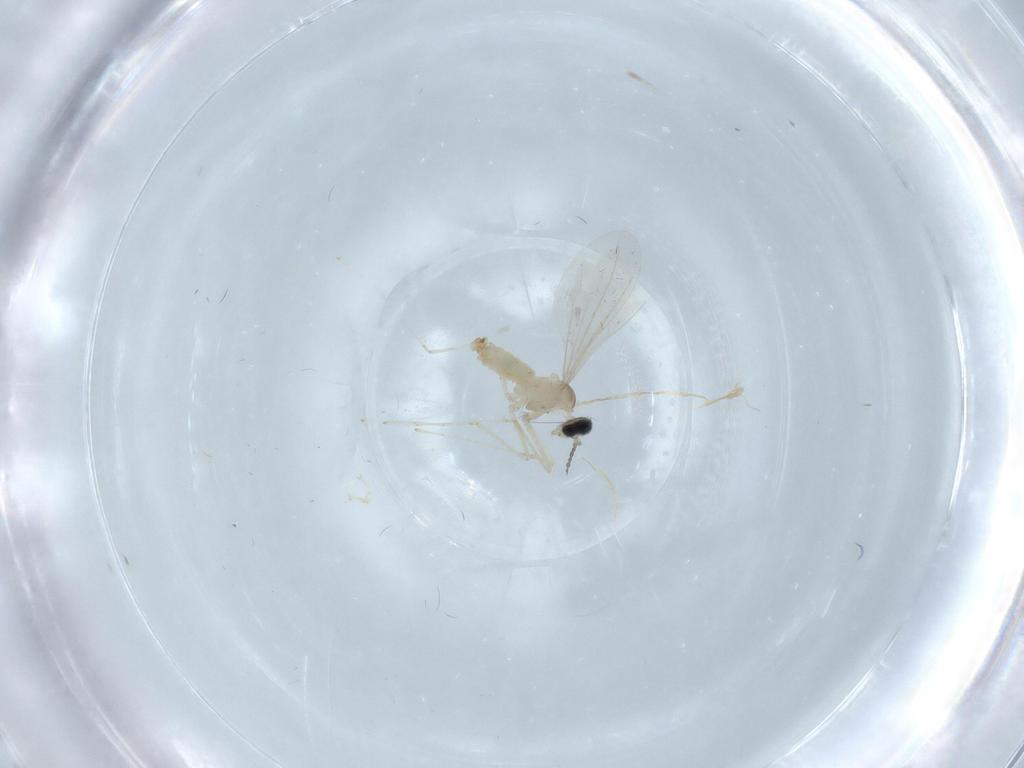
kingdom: Animalia
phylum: Arthropoda
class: Insecta
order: Diptera
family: Cecidomyiidae
